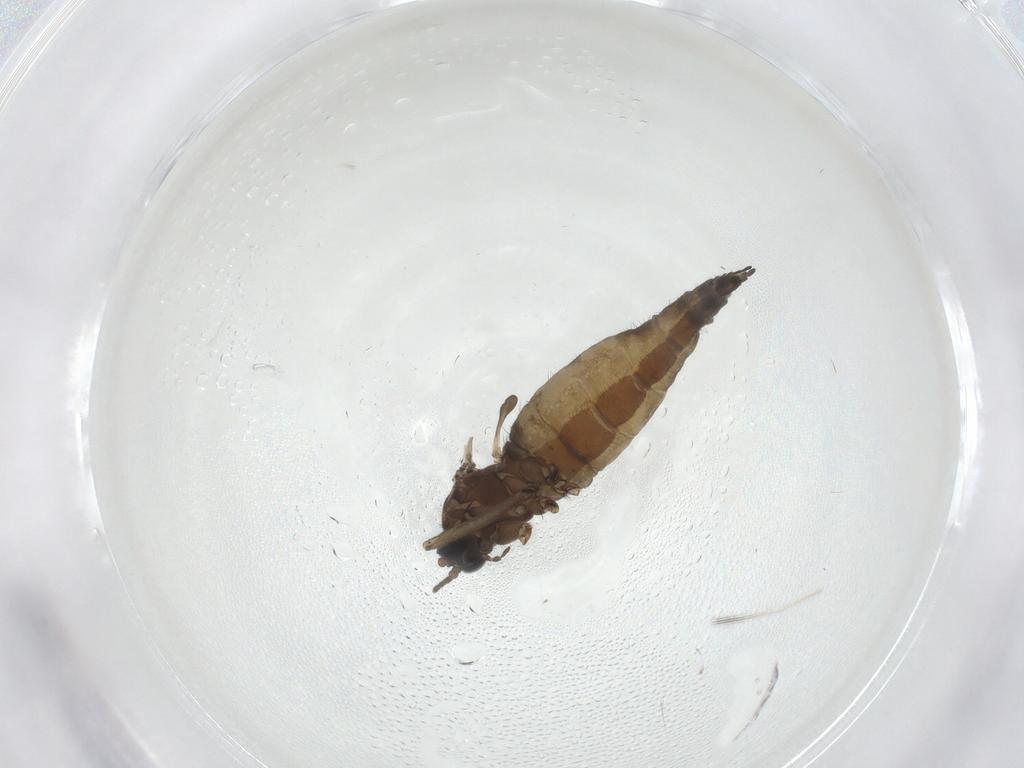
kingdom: Animalia
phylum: Arthropoda
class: Insecta
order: Diptera
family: Sciaridae
